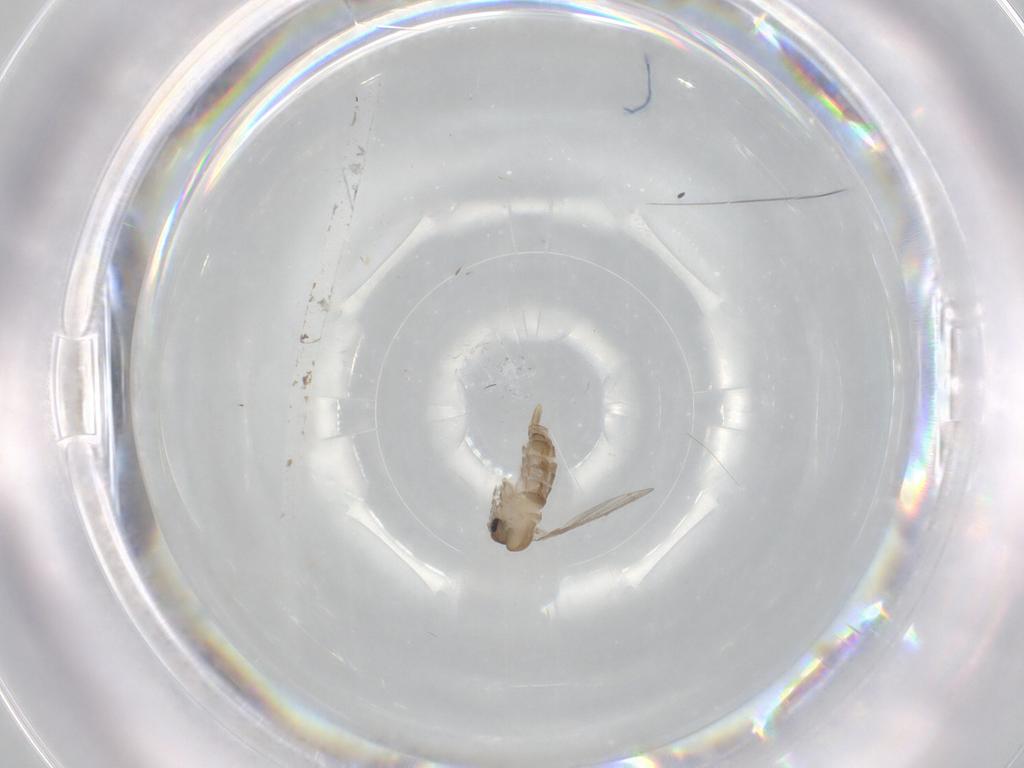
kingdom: Animalia
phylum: Arthropoda
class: Insecta
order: Diptera
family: Psychodidae
